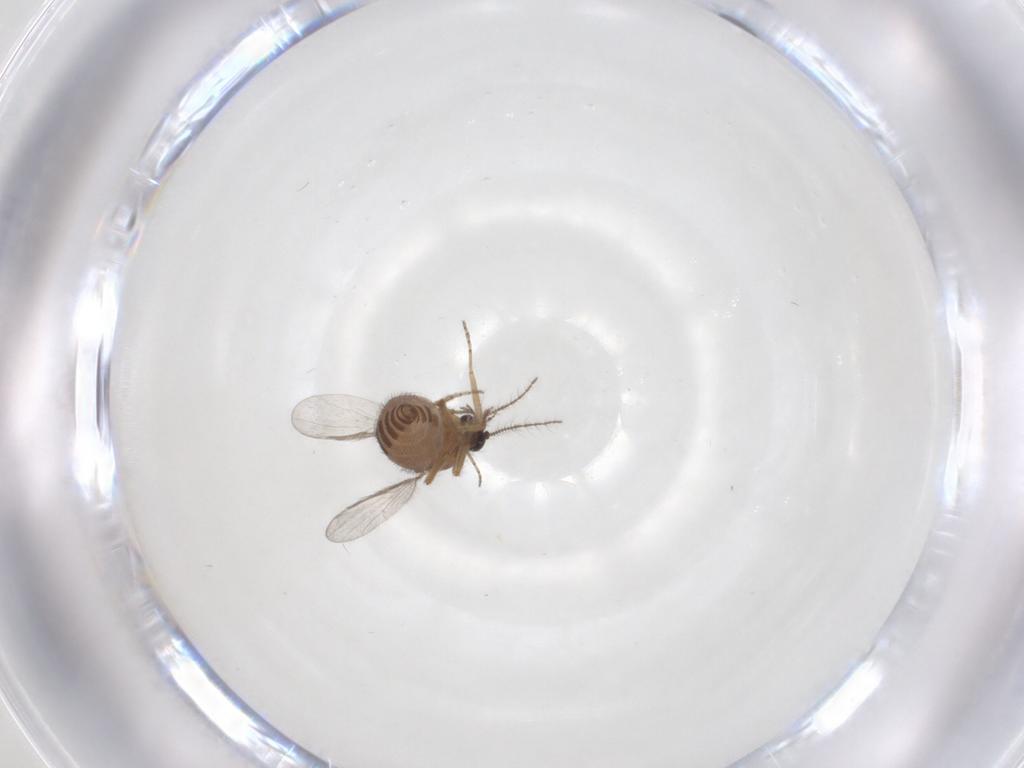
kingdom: Animalia
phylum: Arthropoda
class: Insecta
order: Diptera
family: Ceratopogonidae
